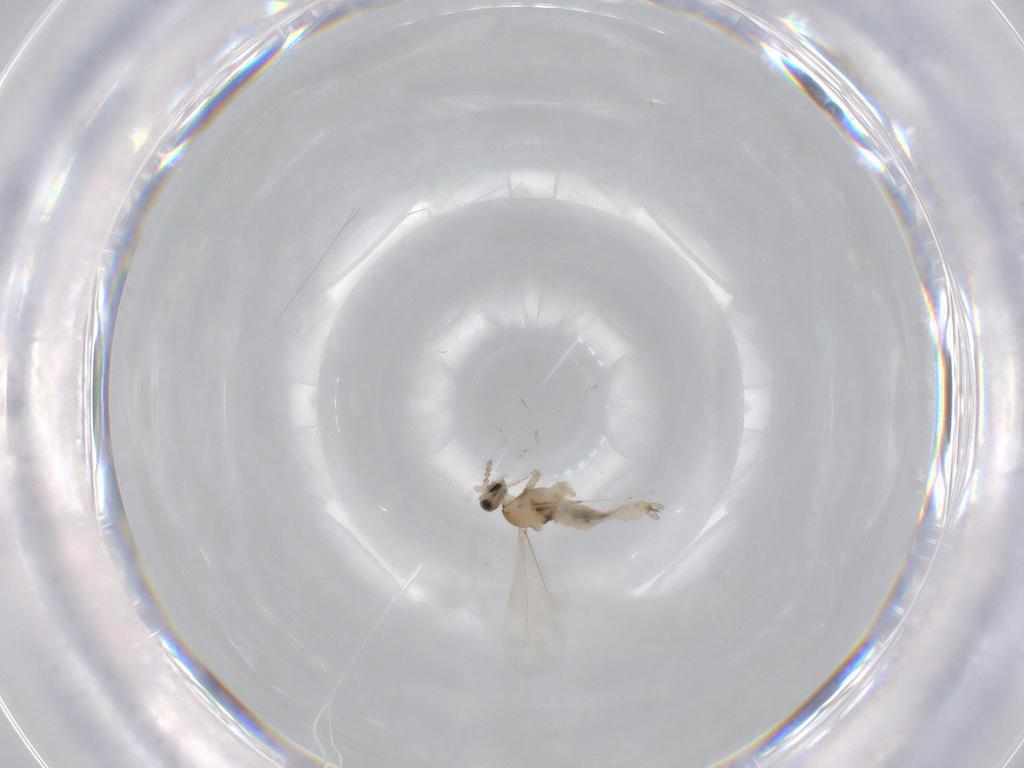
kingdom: Animalia
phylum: Arthropoda
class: Insecta
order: Diptera
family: Cecidomyiidae
